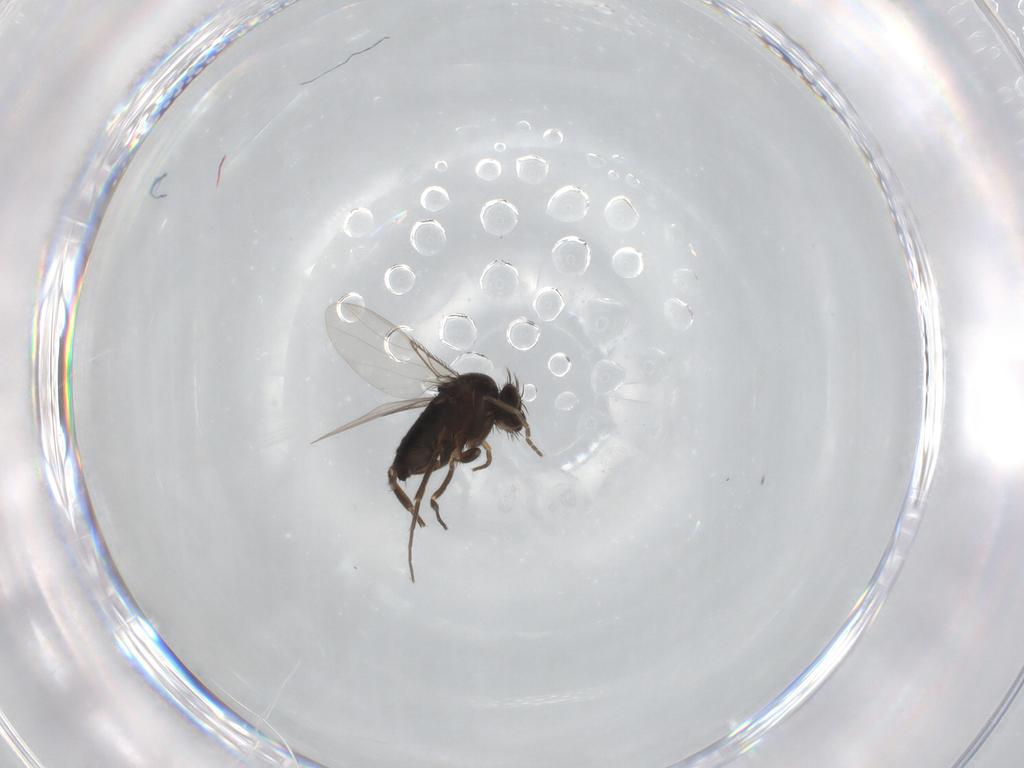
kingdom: Animalia
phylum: Arthropoda
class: Insecta
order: Diptera
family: Phoridae
